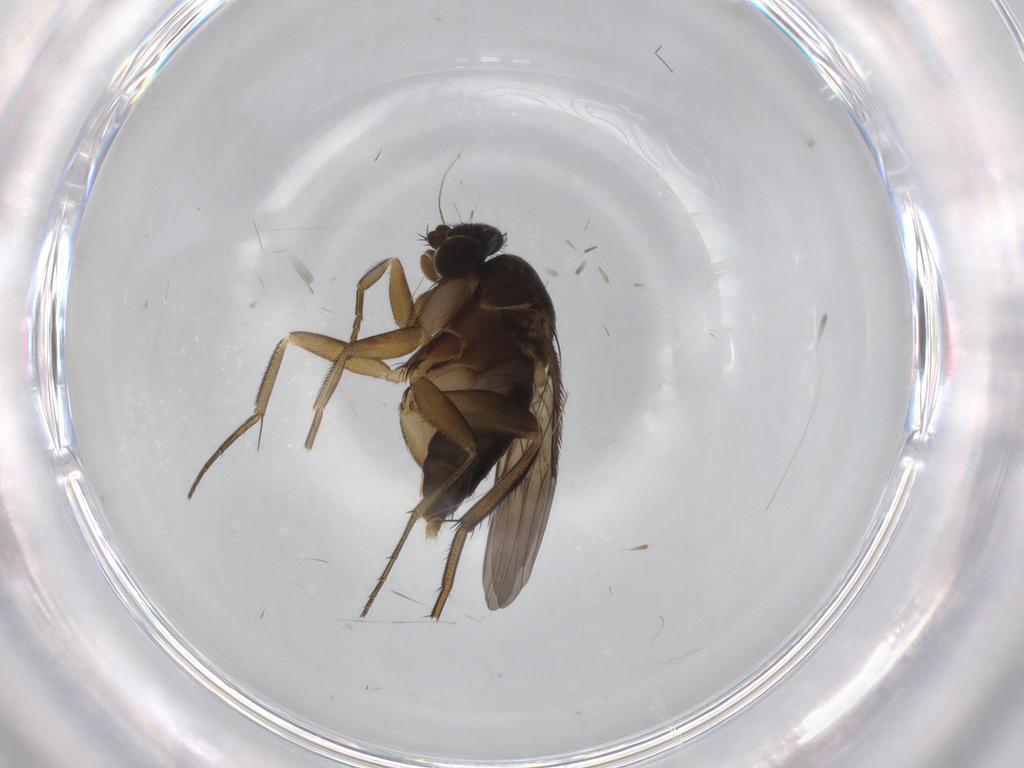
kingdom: Animalia
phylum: Arthropoda
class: Insecta
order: Diptera
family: Phoridae
